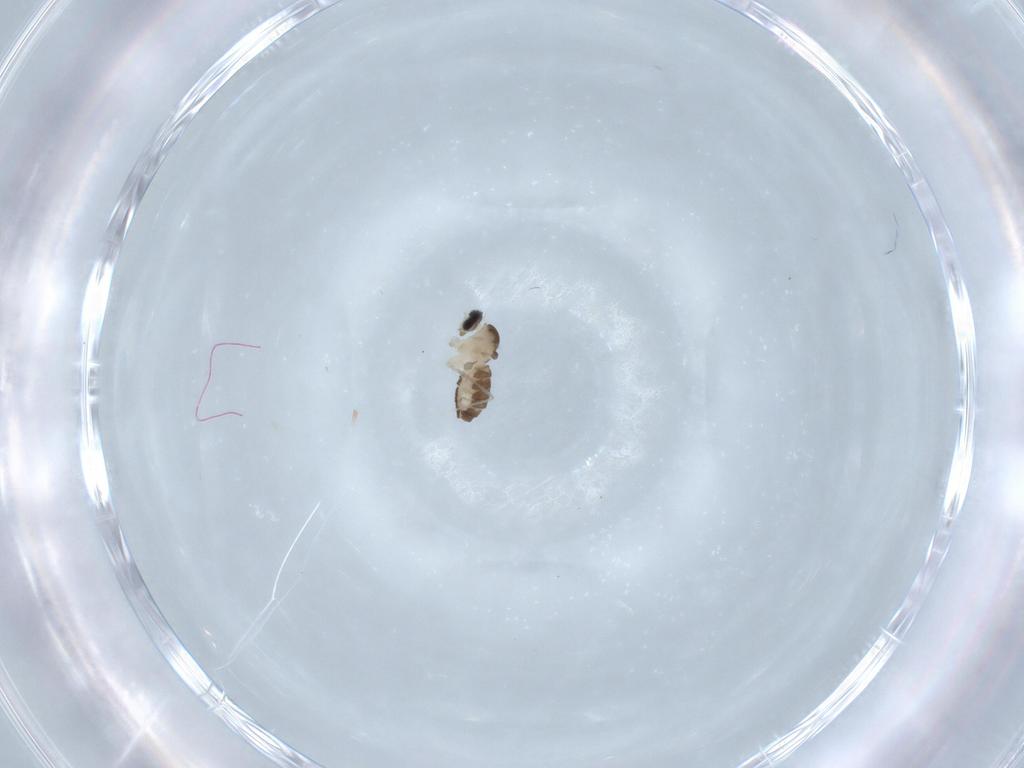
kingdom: Animalia
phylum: Arthropoda
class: Insecta
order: Diptera
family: Cecidomyiidae
